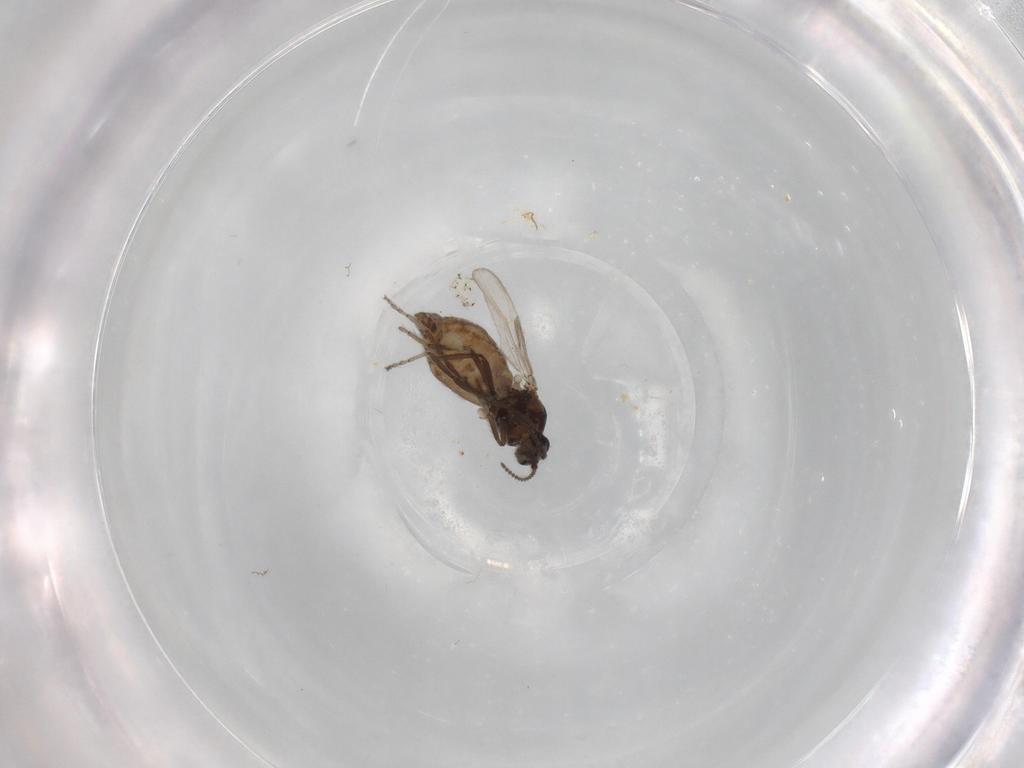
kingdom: Animalia
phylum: Arthropoda
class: Insecta
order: Diptera
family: Ceratopogonidae
